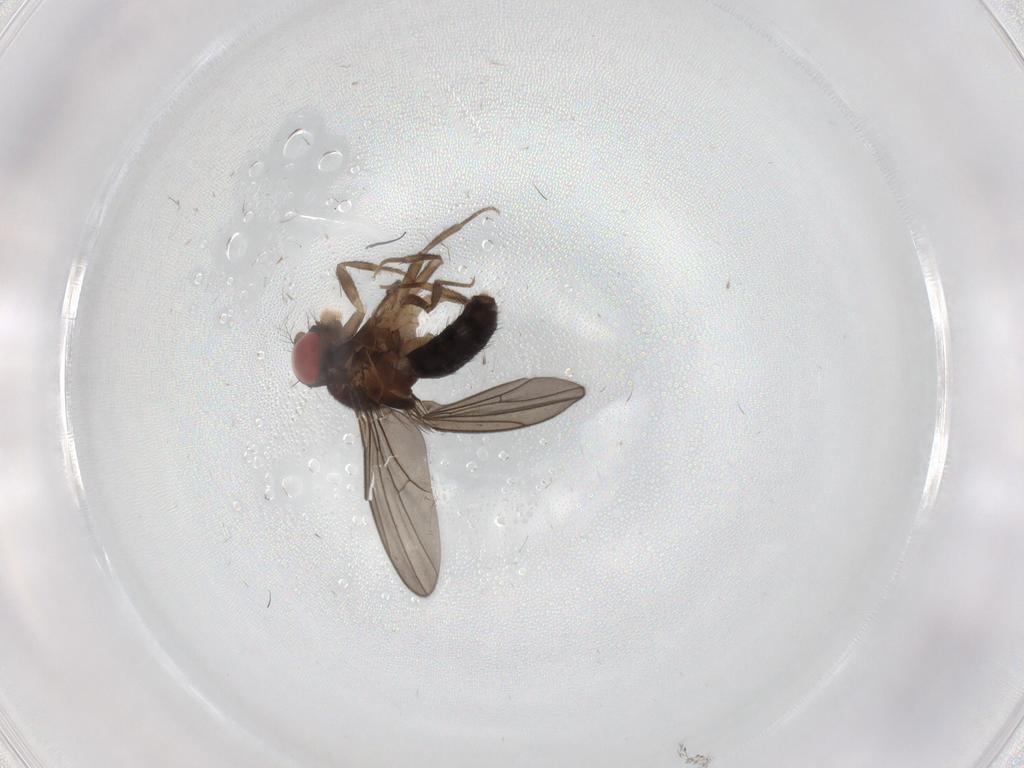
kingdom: Animalia
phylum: Arthropoda
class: Insecta
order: Diptera
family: Drosophilidae
